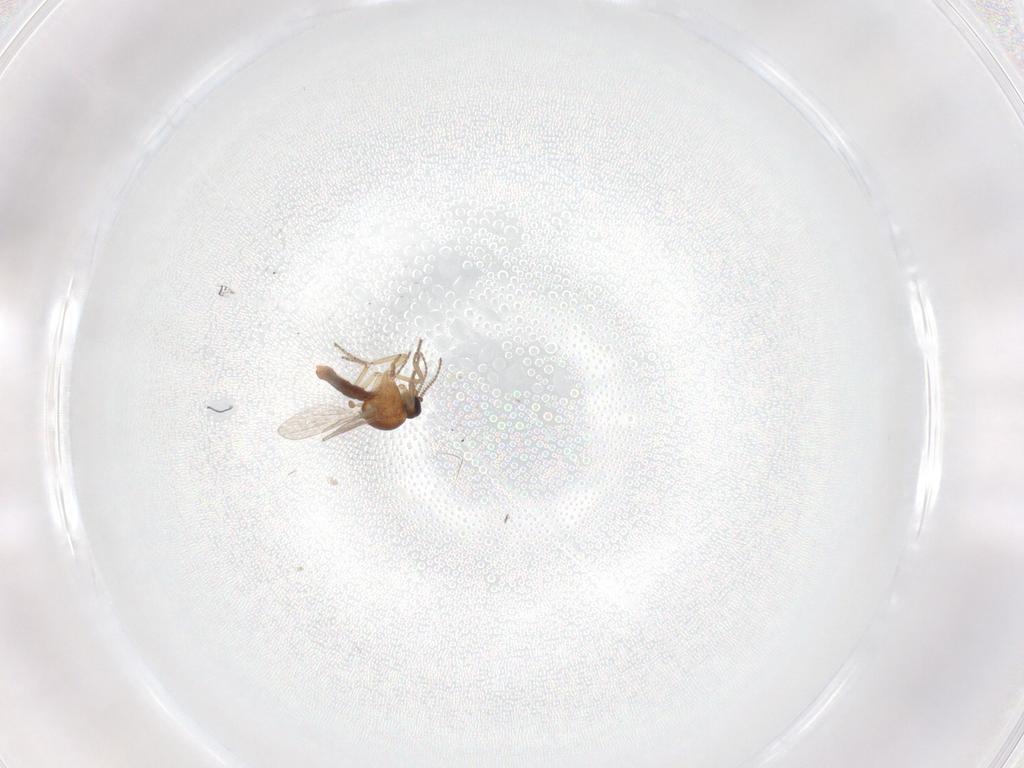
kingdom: Animalia
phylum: Arthropoda
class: Insecta
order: Diptera
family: Ceratopogonidae
